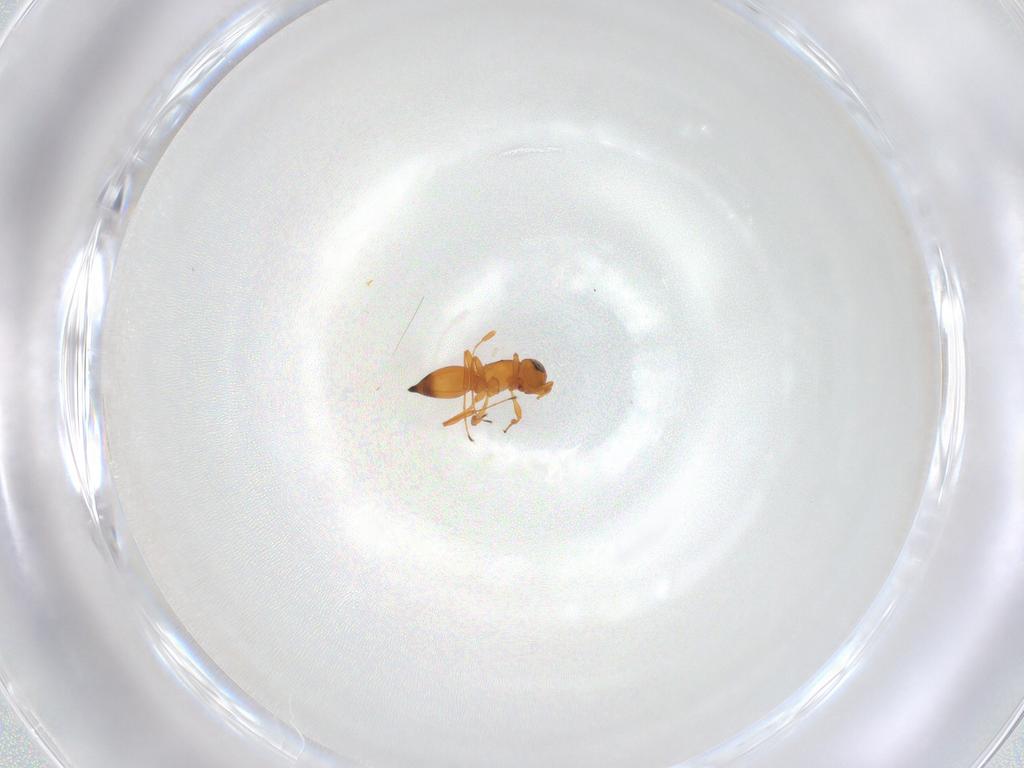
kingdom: Animalia
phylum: Arthropoda
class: Insecta
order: Hymenoptera
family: Platygastridae
